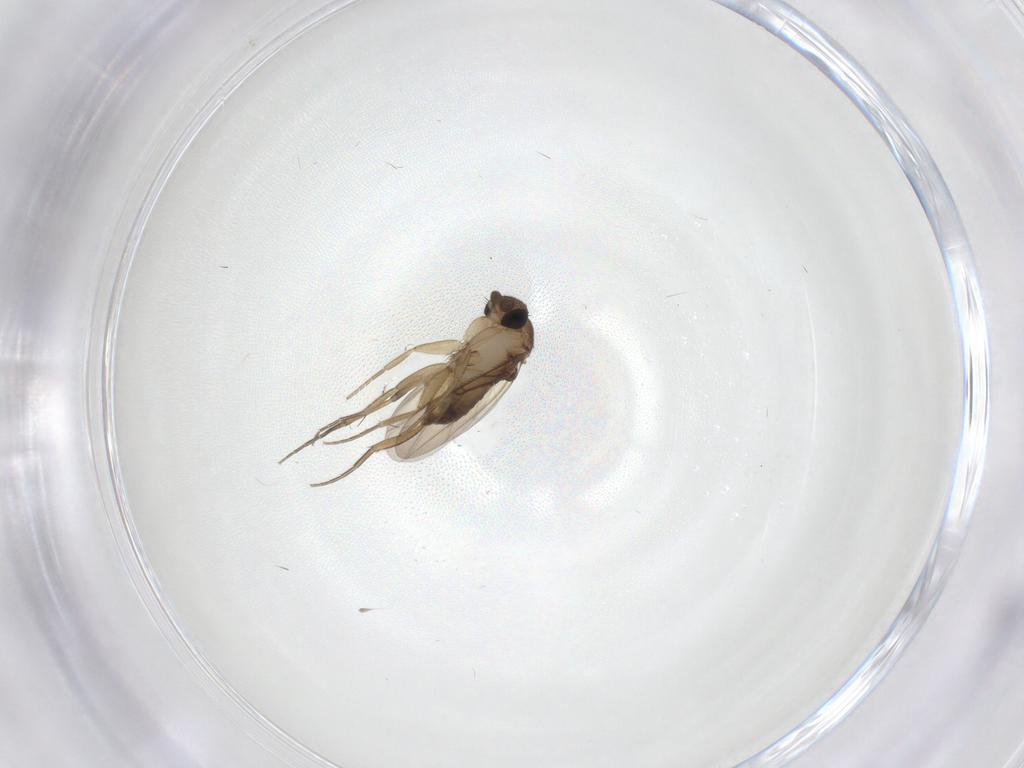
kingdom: Animalia
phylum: Arthropoda
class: Insecta
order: Diptera
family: Phoridae
